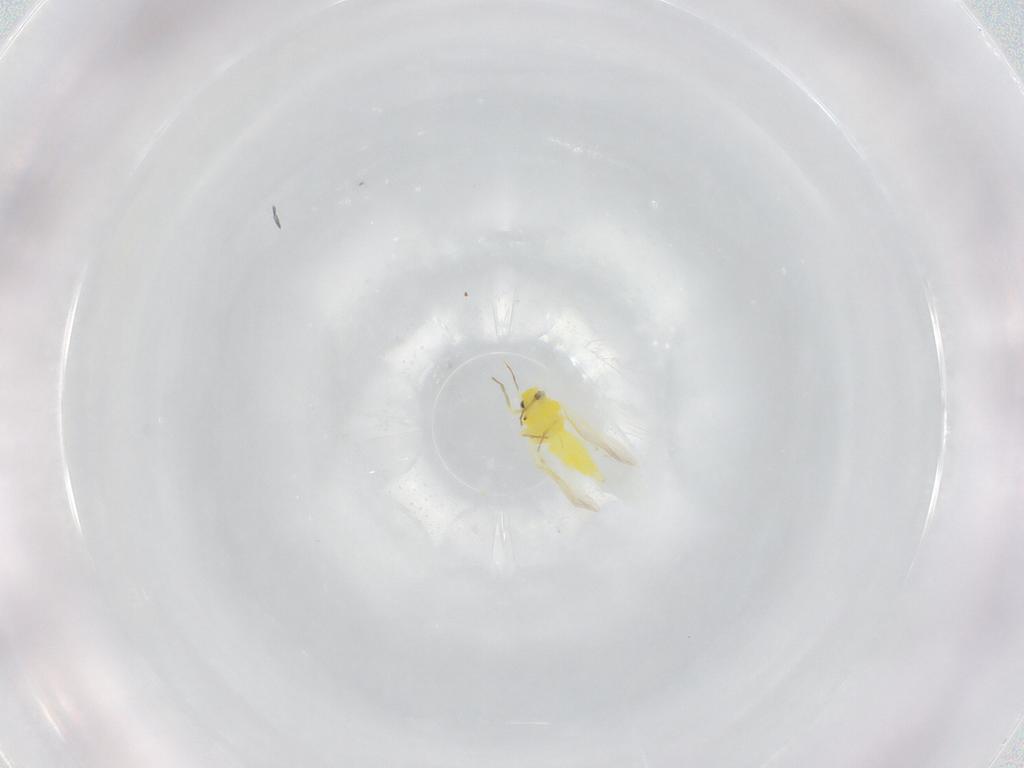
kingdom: Animalia
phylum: Arthropoda
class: Insecta
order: Hemiptera
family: Aleyrodidae
